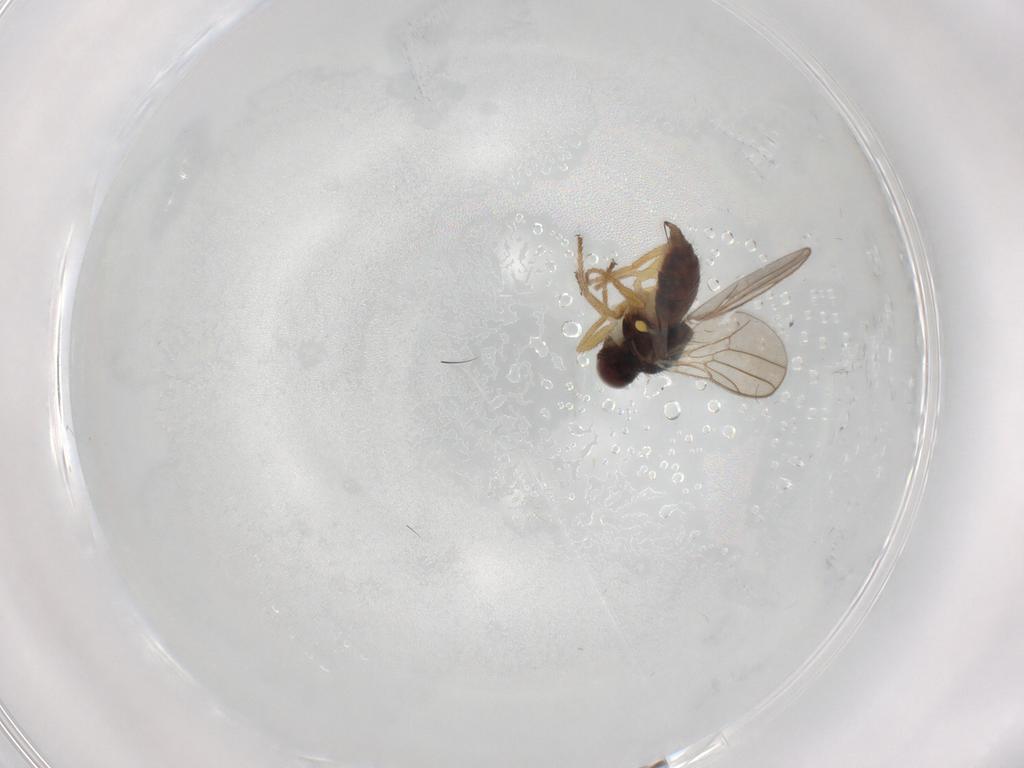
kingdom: Animalia
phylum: Arthropoda
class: Insecta
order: Diptera
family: Chloropidae
